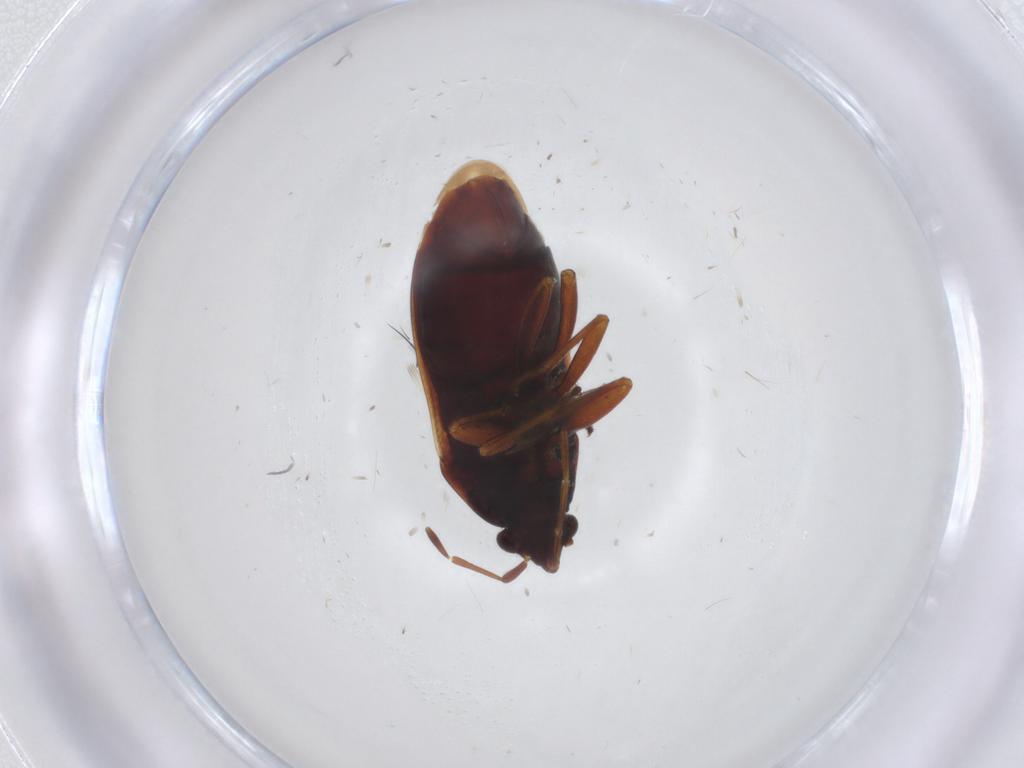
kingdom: Animalia
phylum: Arthropoda
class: Insecta
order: Hemiptera
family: Rhyparochromidae
